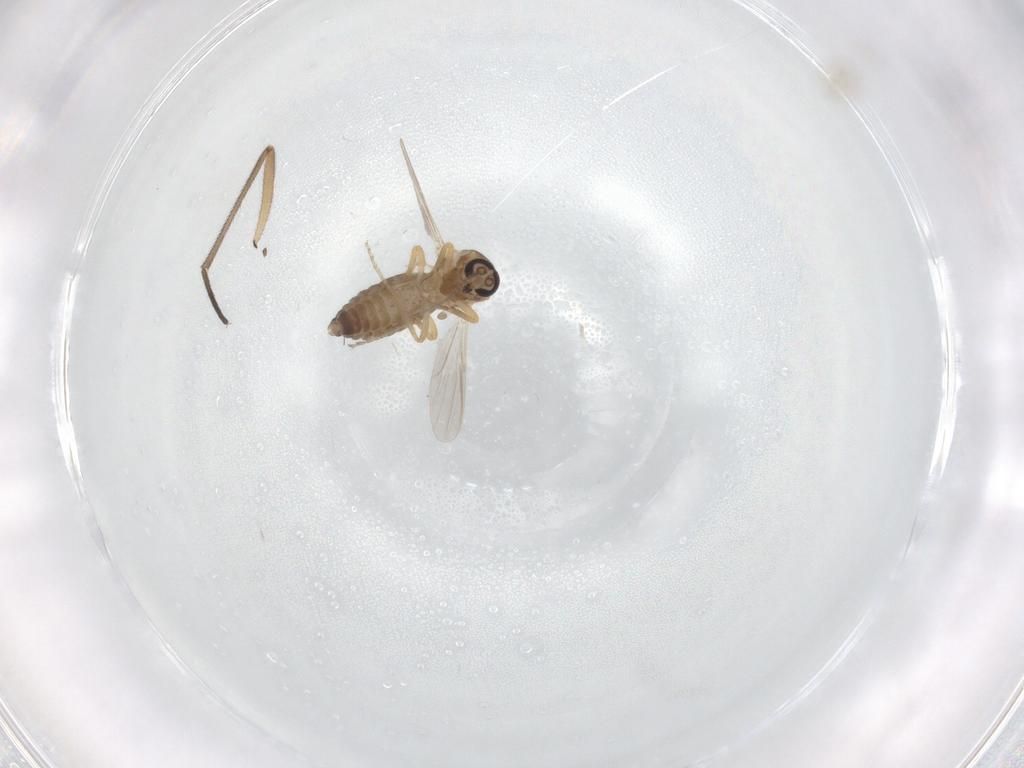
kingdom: Animalia
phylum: Arthropoda
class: Insecta
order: Diptera
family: Ceratopogonidae
